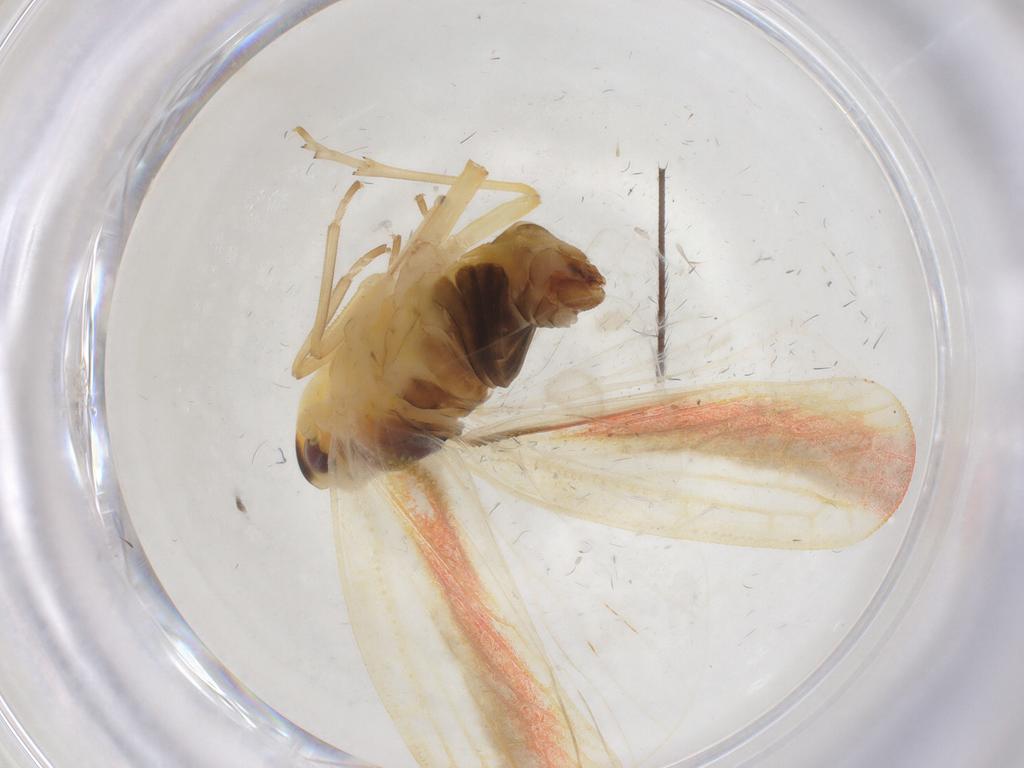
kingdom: Animalia
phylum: Arthropoda
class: Insecta
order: Hemiptera
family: Derbidae
